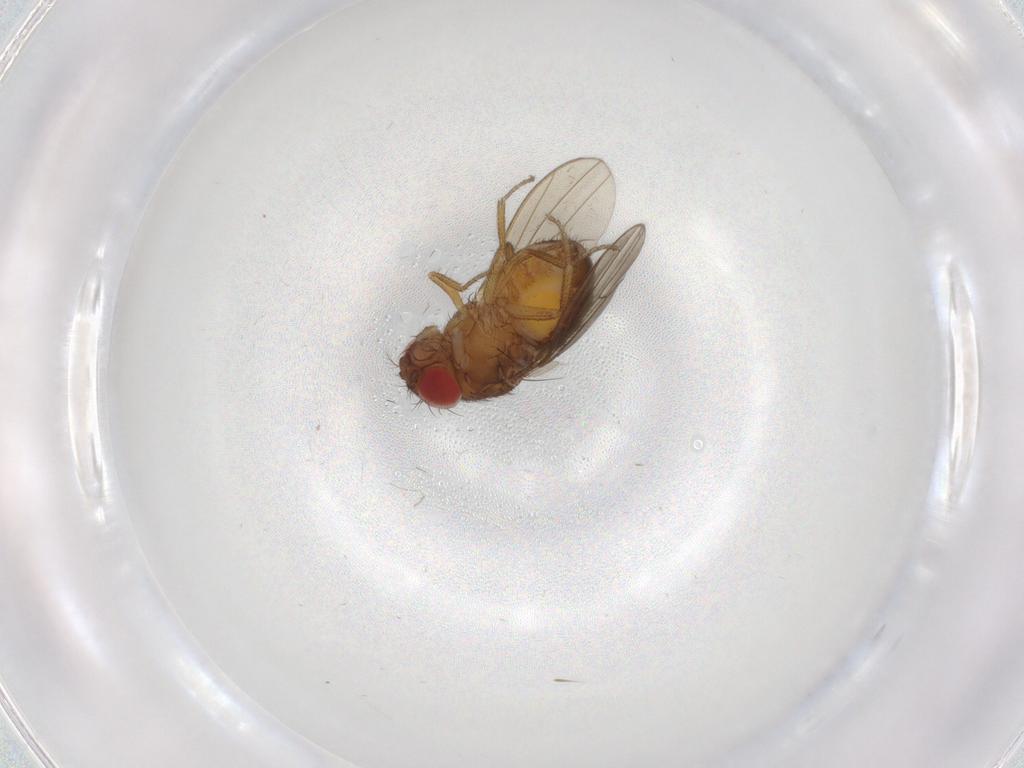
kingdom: Animalia
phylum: Arthropoda
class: Insecta
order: Diptera
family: Drosophilidae
